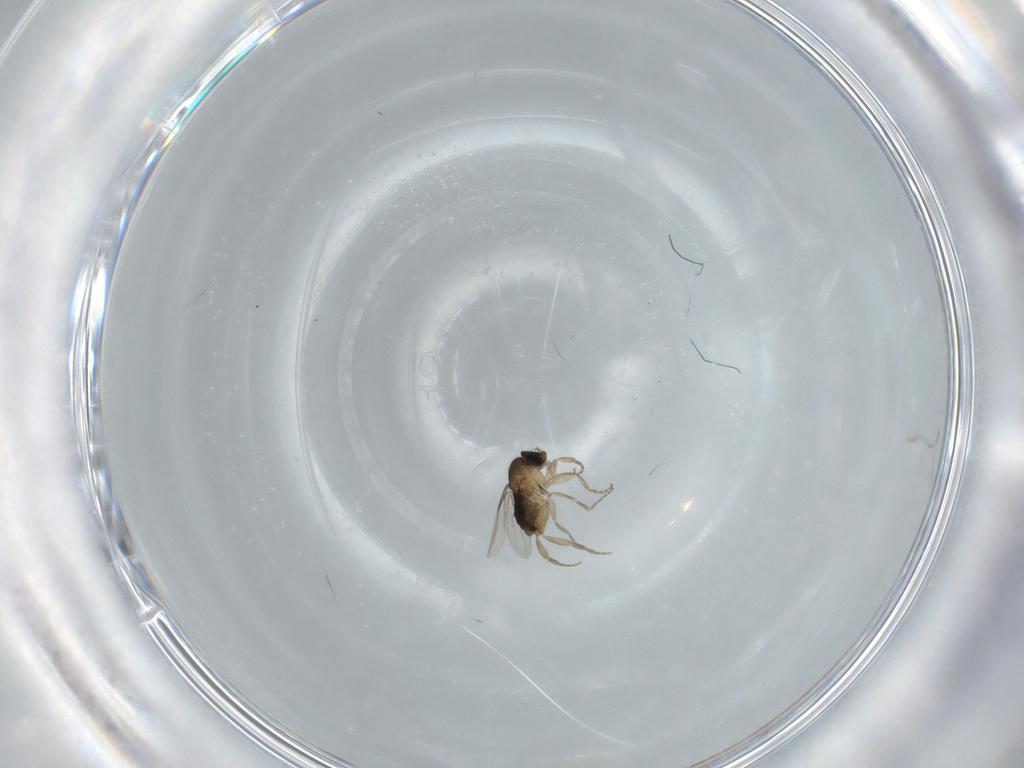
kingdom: Animalia
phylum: Arthropoda
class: Insecta
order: Diptera
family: Phoridae
